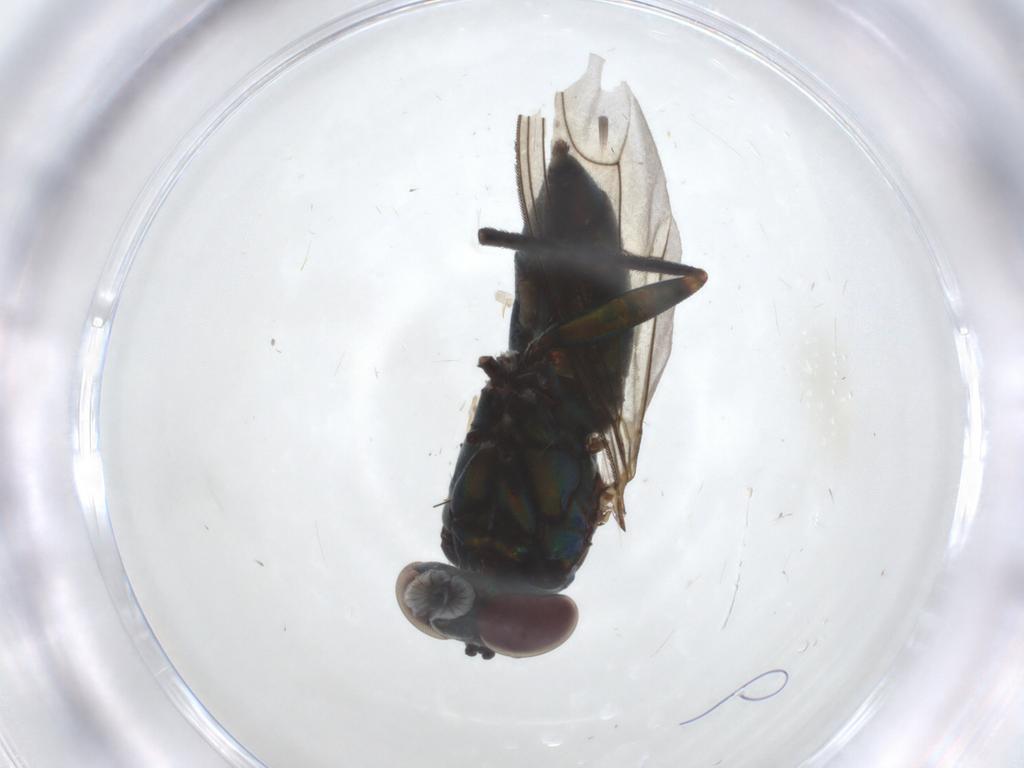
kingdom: Animalia
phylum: Arthropoda
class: Insecta
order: Diptera
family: Dolichopodidae
